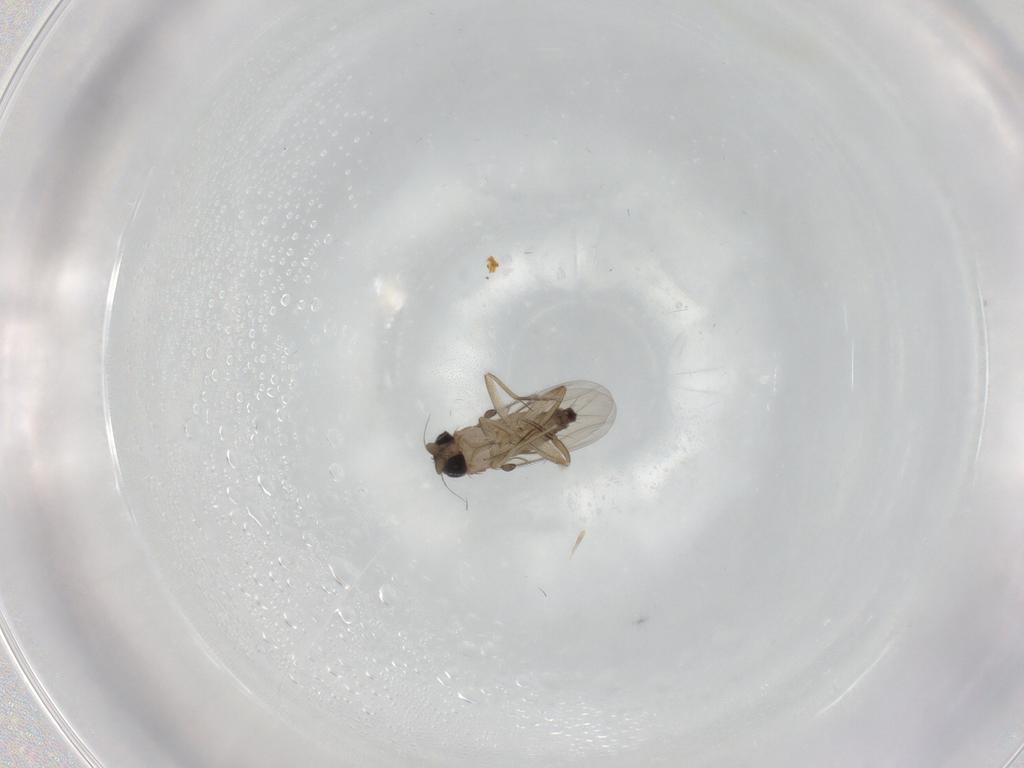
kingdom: Animalia
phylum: Arthropoda
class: Insecta
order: Diptera
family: Phoridae
